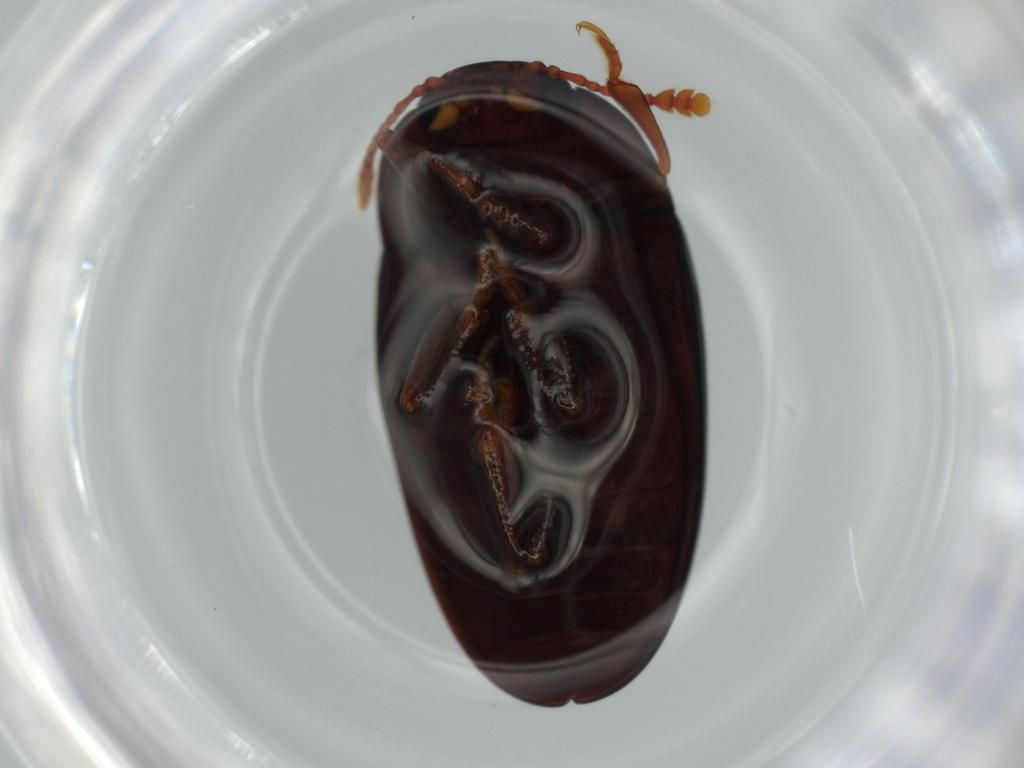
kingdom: Animalia
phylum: Arthropoda
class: Insecta
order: Coleoptera
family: Erotylidae
